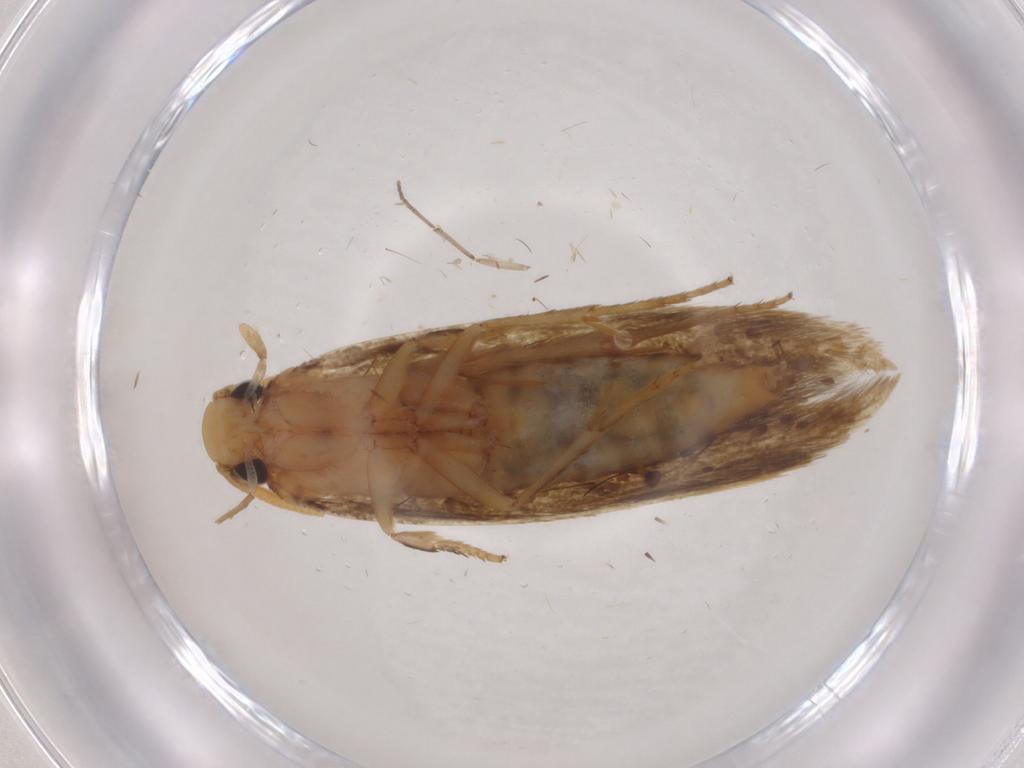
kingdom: Animalia
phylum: Arthropoda
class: Insecta
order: Lepidoptera
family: Tineidae
